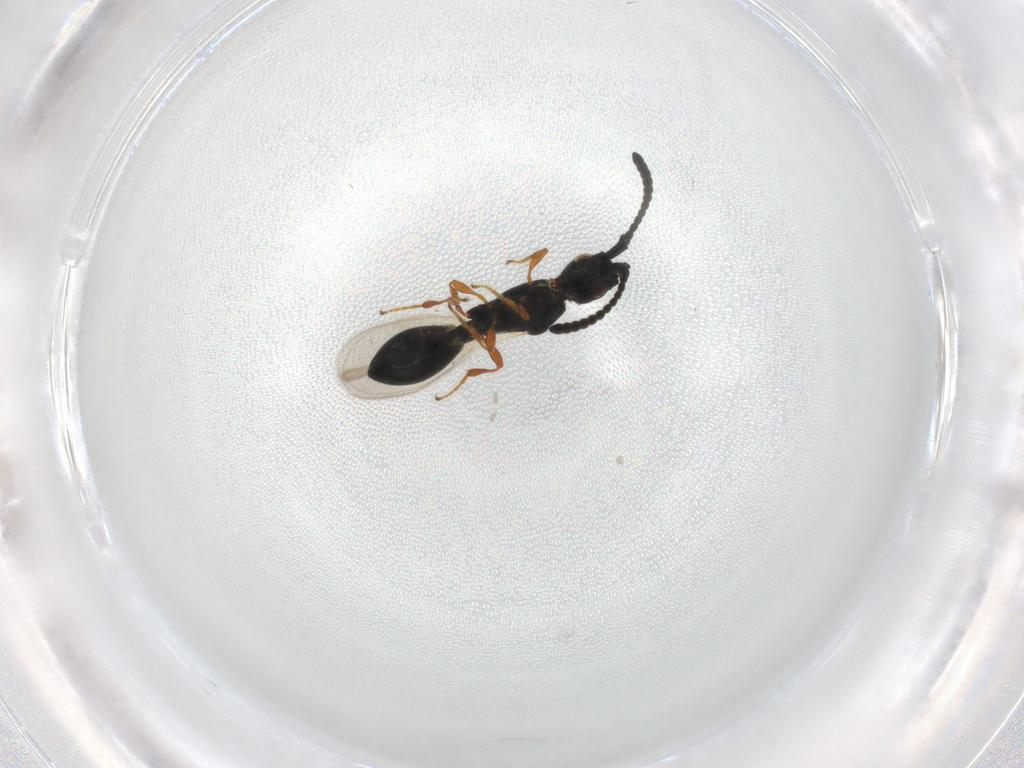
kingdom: Animalia
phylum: Arthropoda
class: Insecta
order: Hymenoptera
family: Diapriidae
